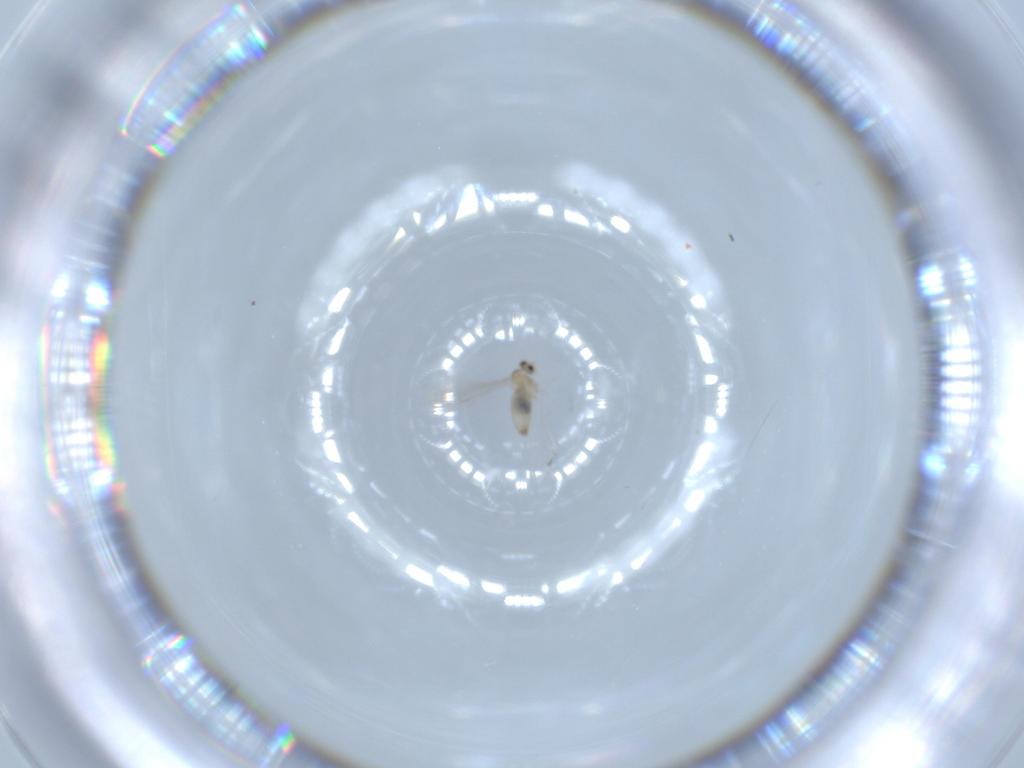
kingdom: Animalia
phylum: Arthropoda
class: Insecta
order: Diptera
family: Cecidomyiidae
